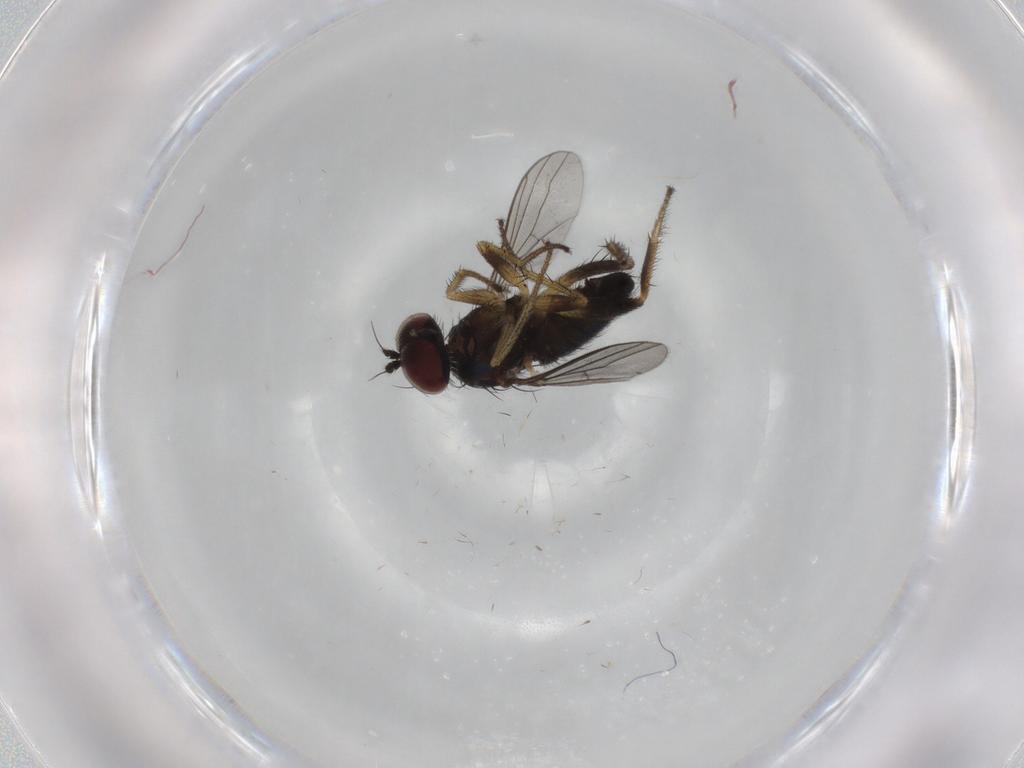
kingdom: Animalia
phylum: Arthropoda
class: Insecta
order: Diptera
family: Dolichopodidae
